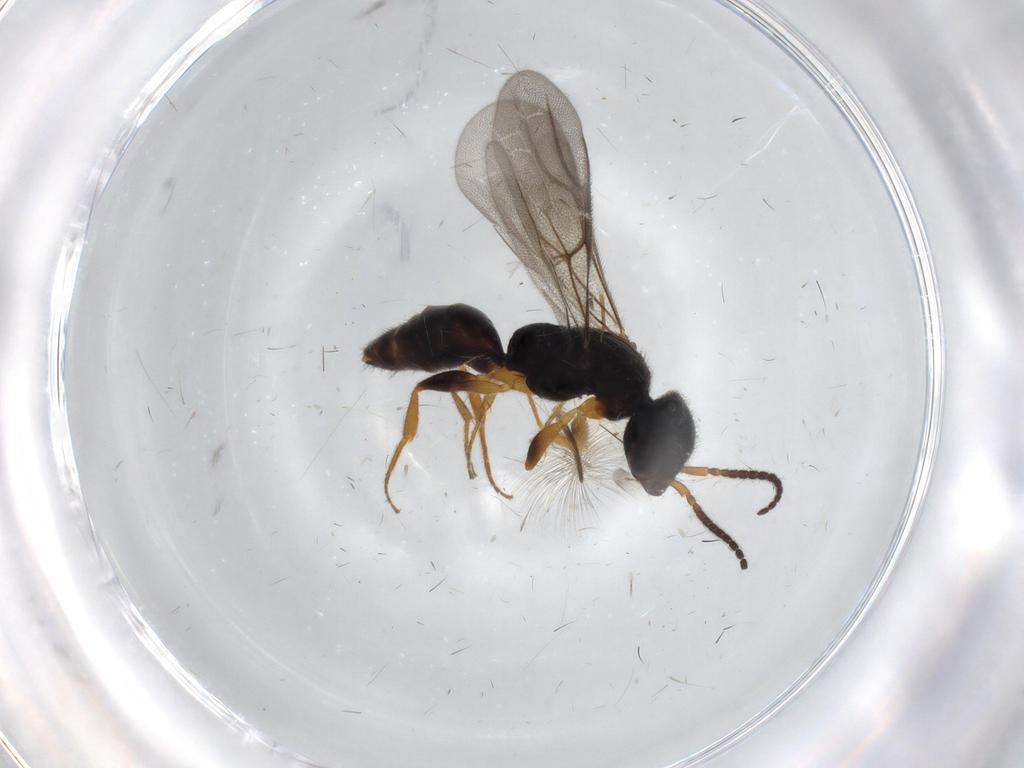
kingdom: Animalia
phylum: Arthropoda
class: Insecta
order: Hymenoptera
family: Bethylidae
